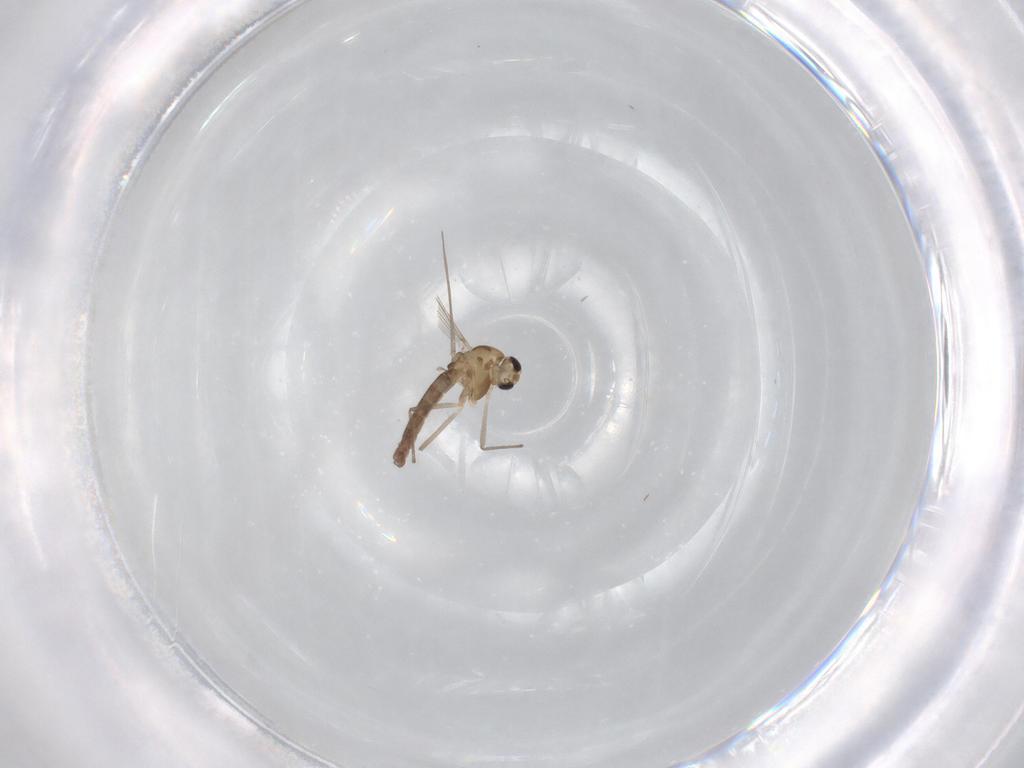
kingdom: Animalia
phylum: Arthropoda
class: Insecta
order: Diptera
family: Chironomidae
